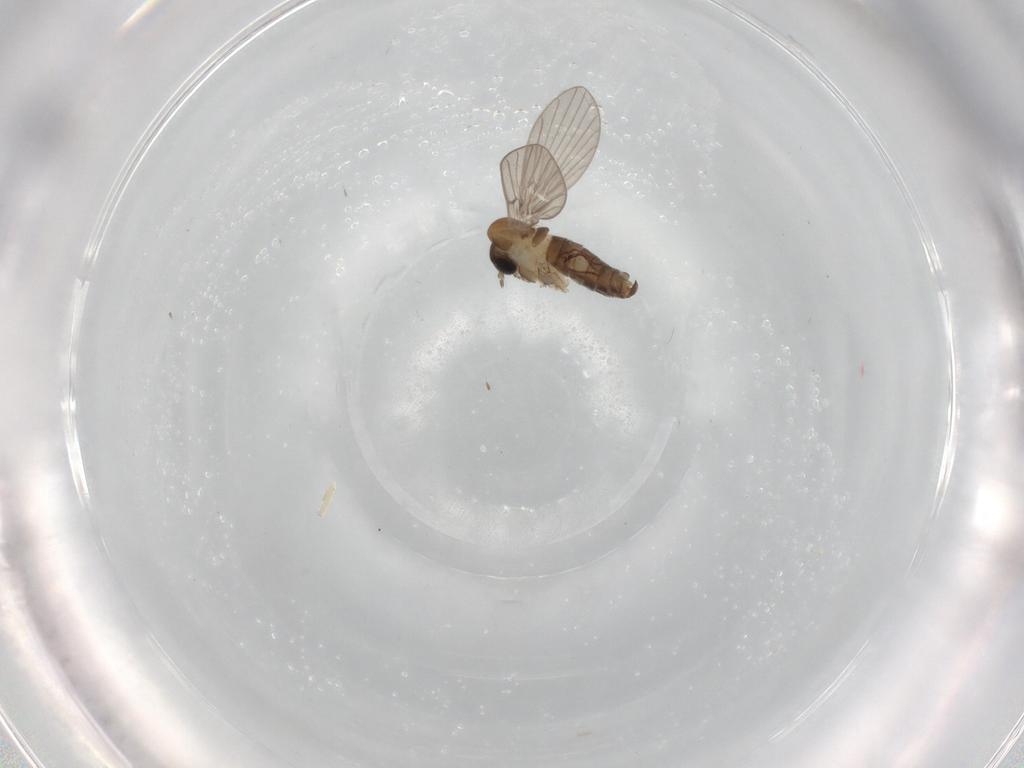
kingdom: Animalia
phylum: Arthropoda
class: Insecta
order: Diptera
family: Psychodidae
